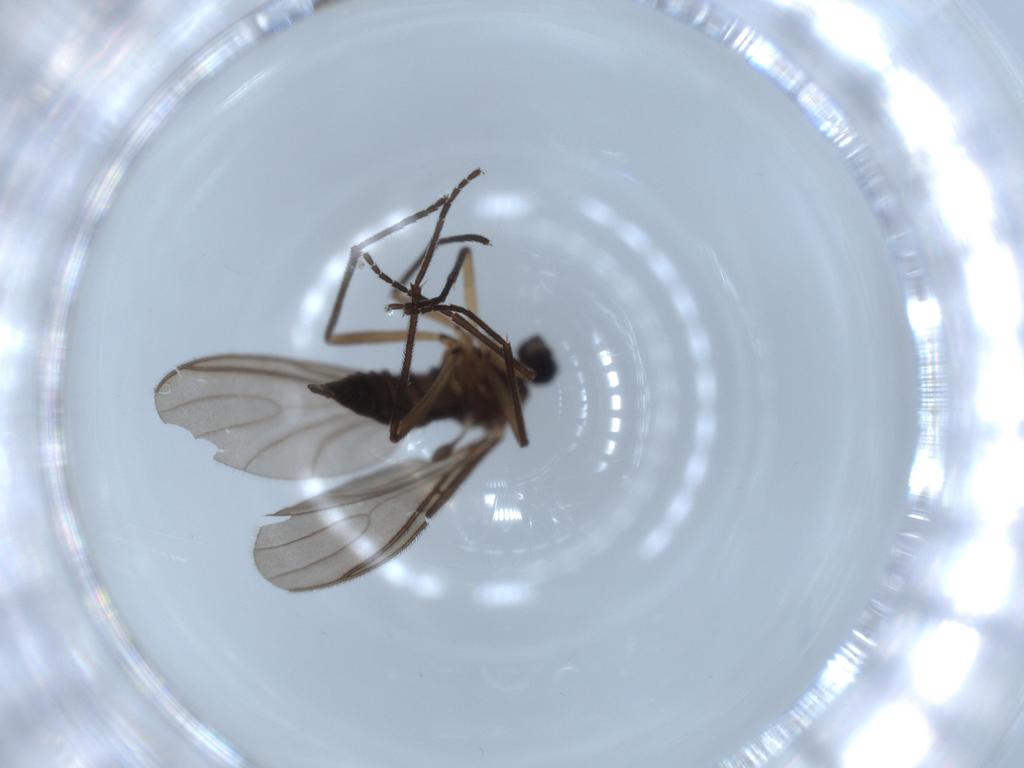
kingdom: Animalia
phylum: Arthropoda
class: Insecta
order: Diptera
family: Sciaridae
